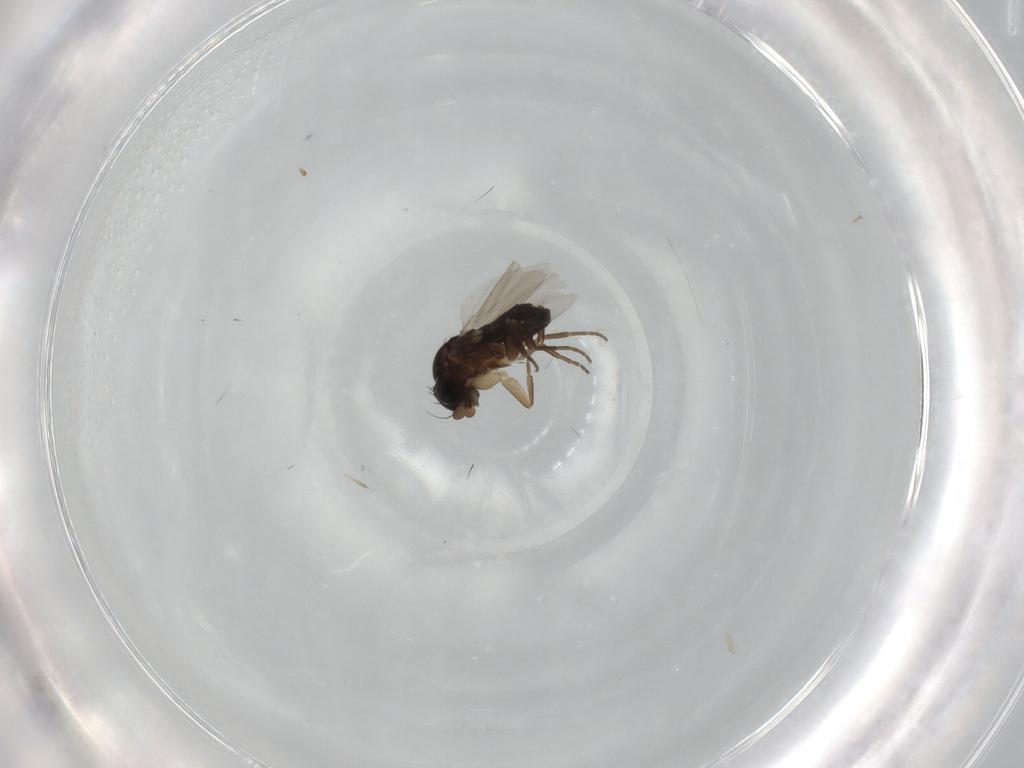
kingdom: Animalia
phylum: Arthropoda
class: Insecta
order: Diptera
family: Phoridae
